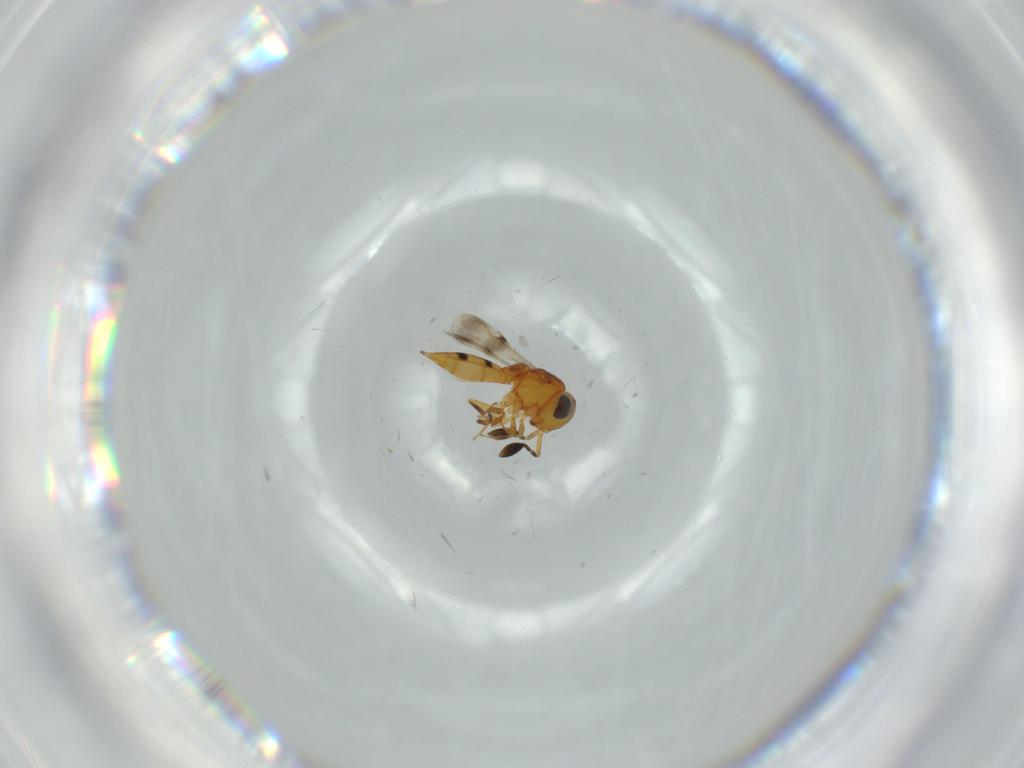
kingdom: Animalia
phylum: Arthropoda
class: Insecta
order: Hymenoptera
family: Scelionidae
